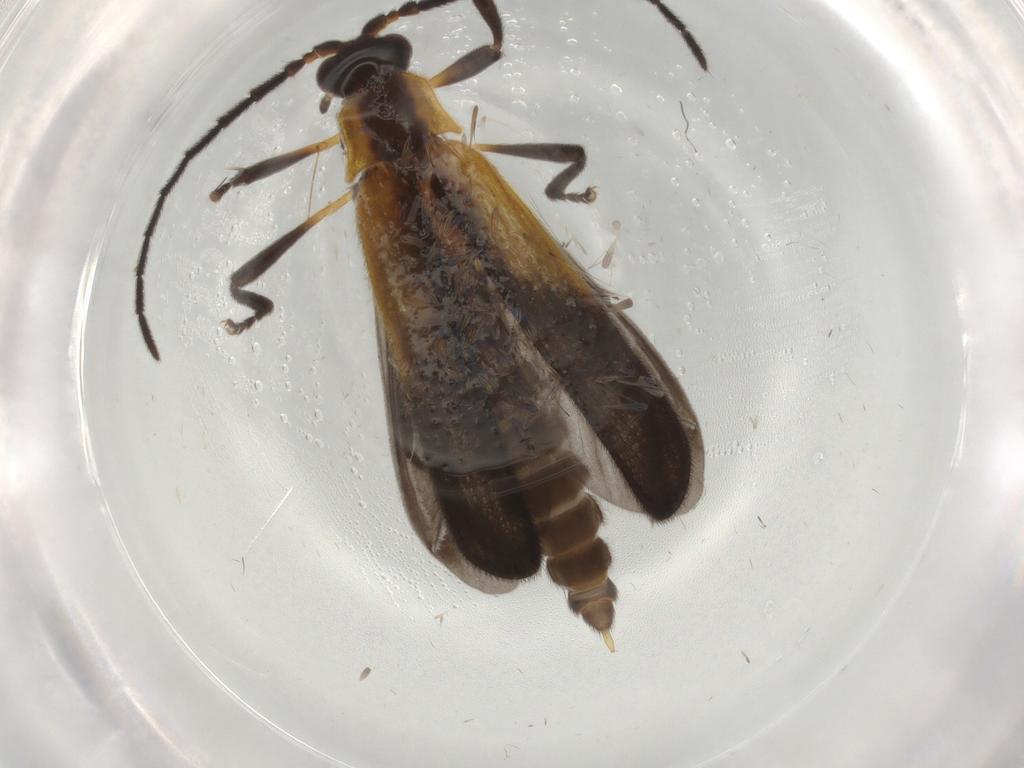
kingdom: Animalia
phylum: Arthropoda
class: Insecta
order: Coleoptera
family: Lycidae
